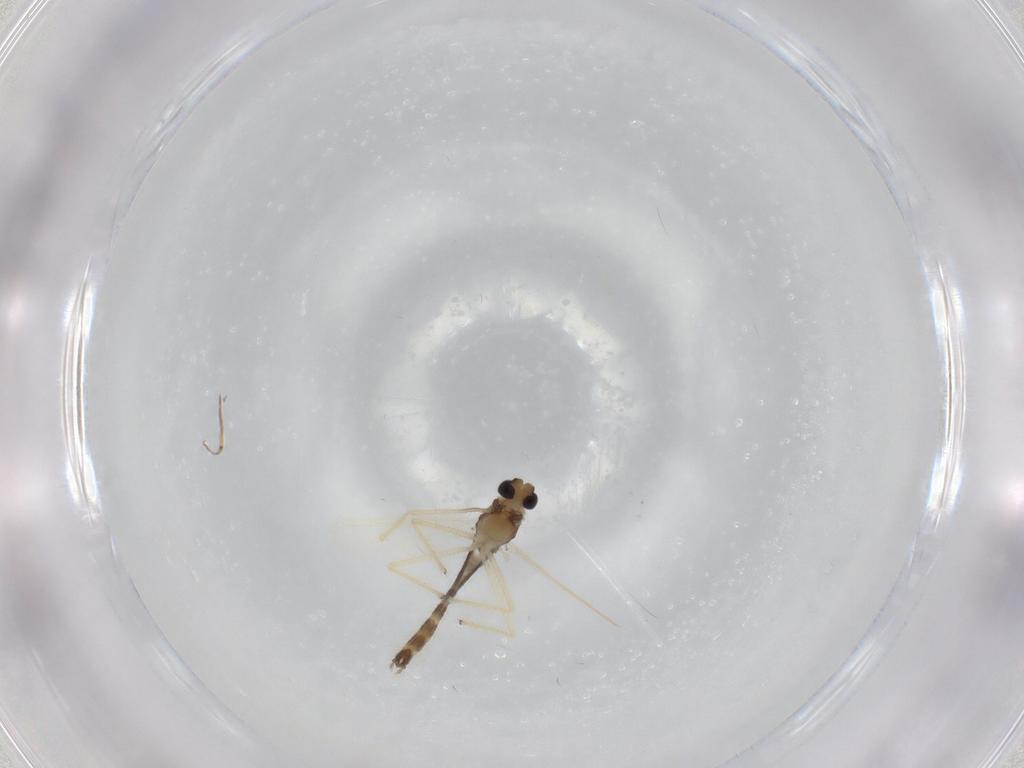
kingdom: Animalia
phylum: Arthropoda
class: Insecta
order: Diptera
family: Chironomidae
